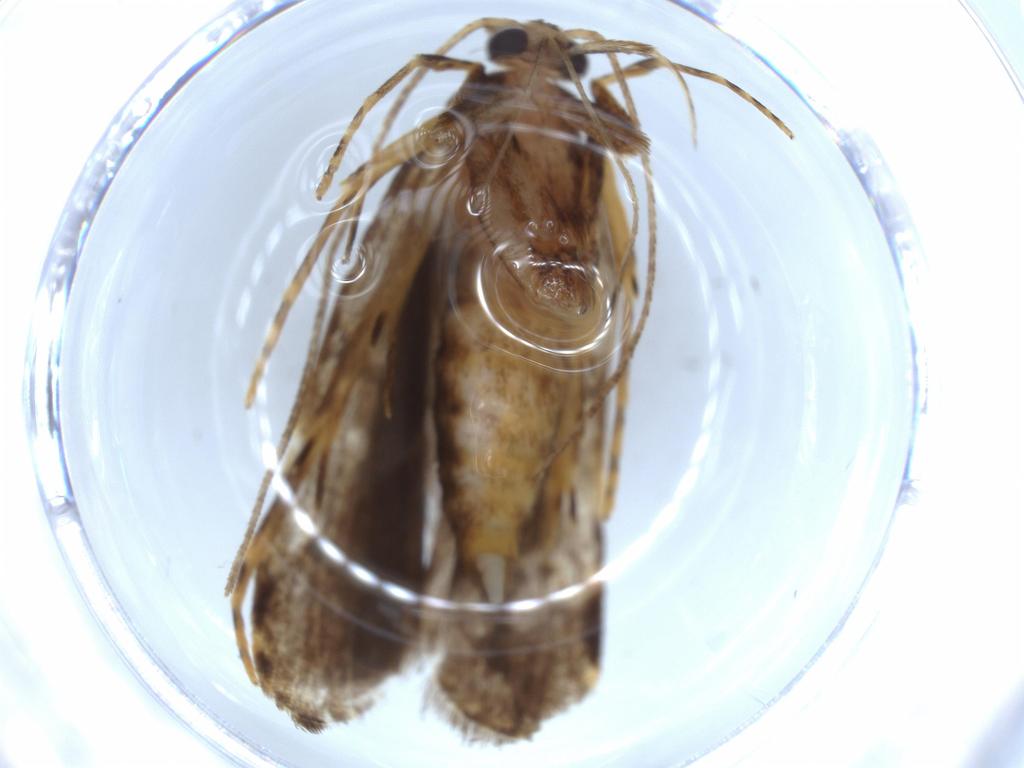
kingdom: Animalia
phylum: Arthropoda
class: Insecta
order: Lepidoptera
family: Autostichidae
